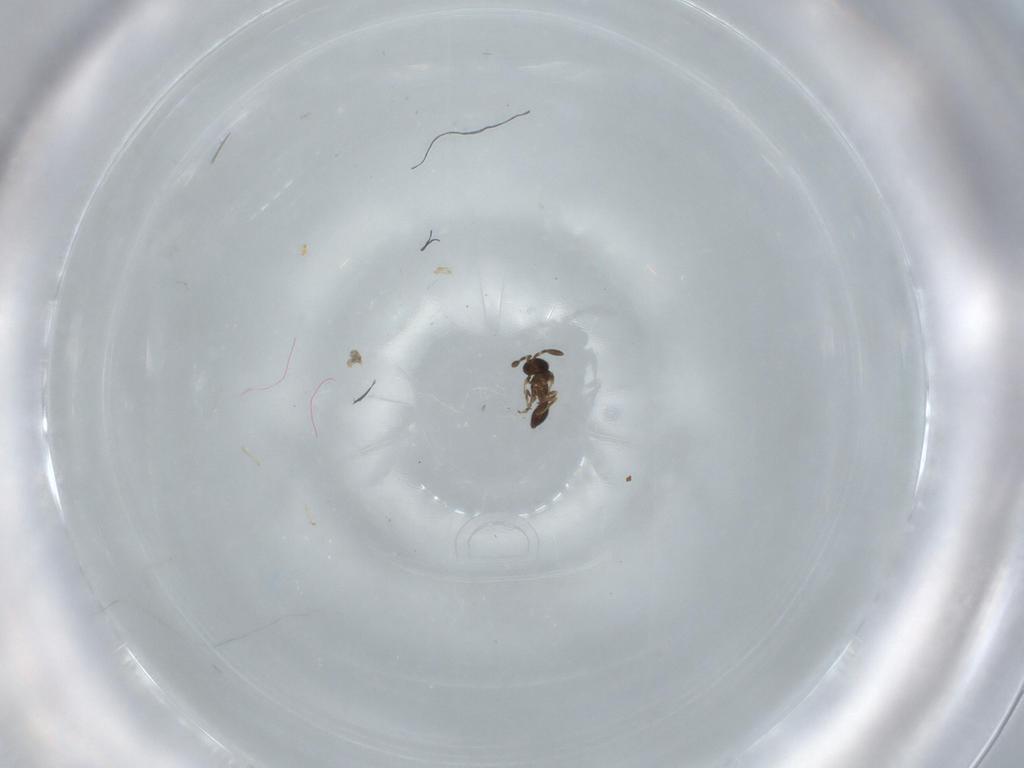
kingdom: Animalia
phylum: Arthropoda
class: Insecta
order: Hymenoptera
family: Scelionidae
